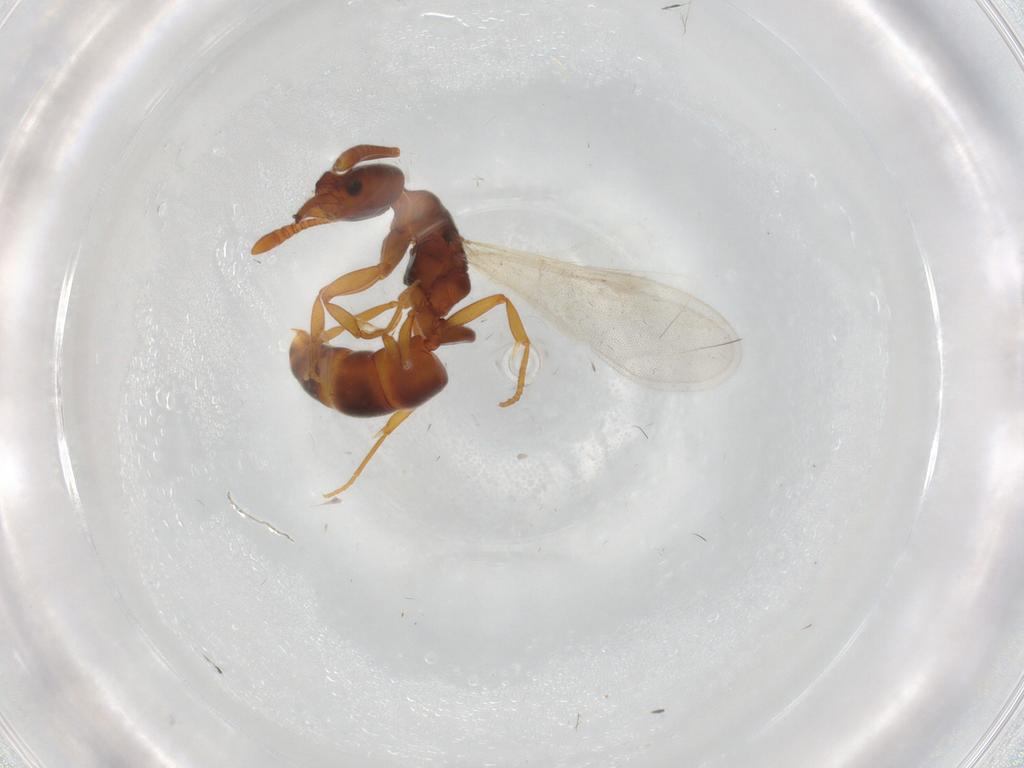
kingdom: Animalia
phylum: Arthropoda
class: Insecta
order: Hymenoptera
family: Formicidae
